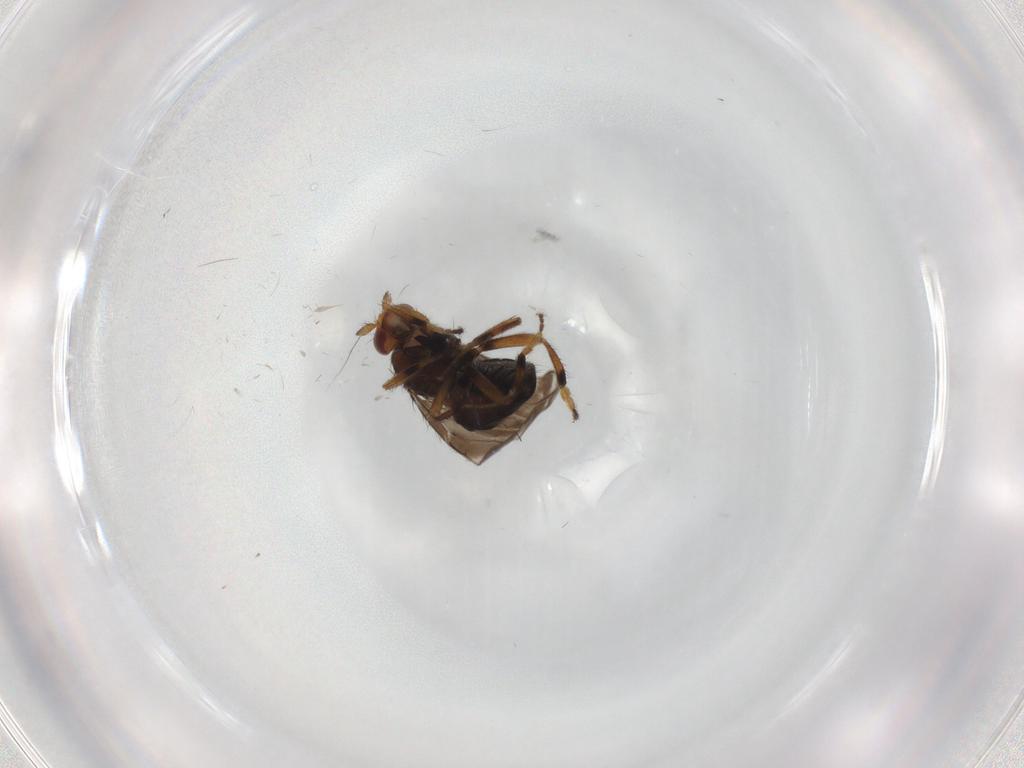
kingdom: Animalia
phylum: Arthropoda
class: Insecta
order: Diptera
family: Sphaeroceridae
